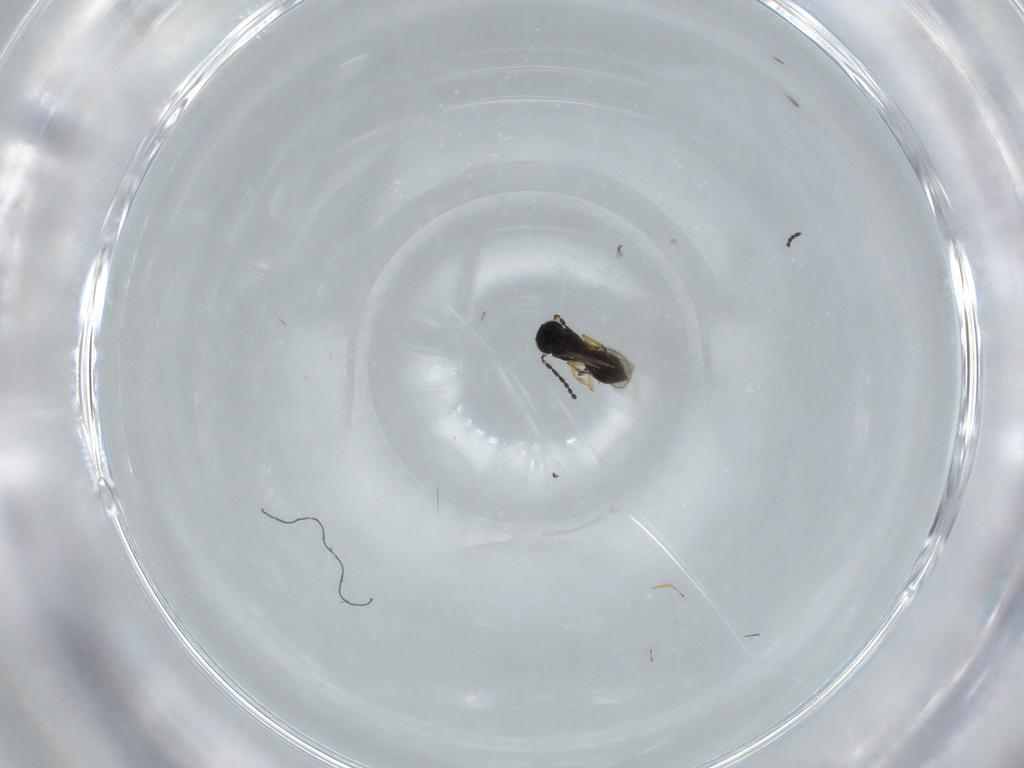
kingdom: Animalia
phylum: Arthropoda
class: Insecta
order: Hymenoptera
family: Scelionidae
